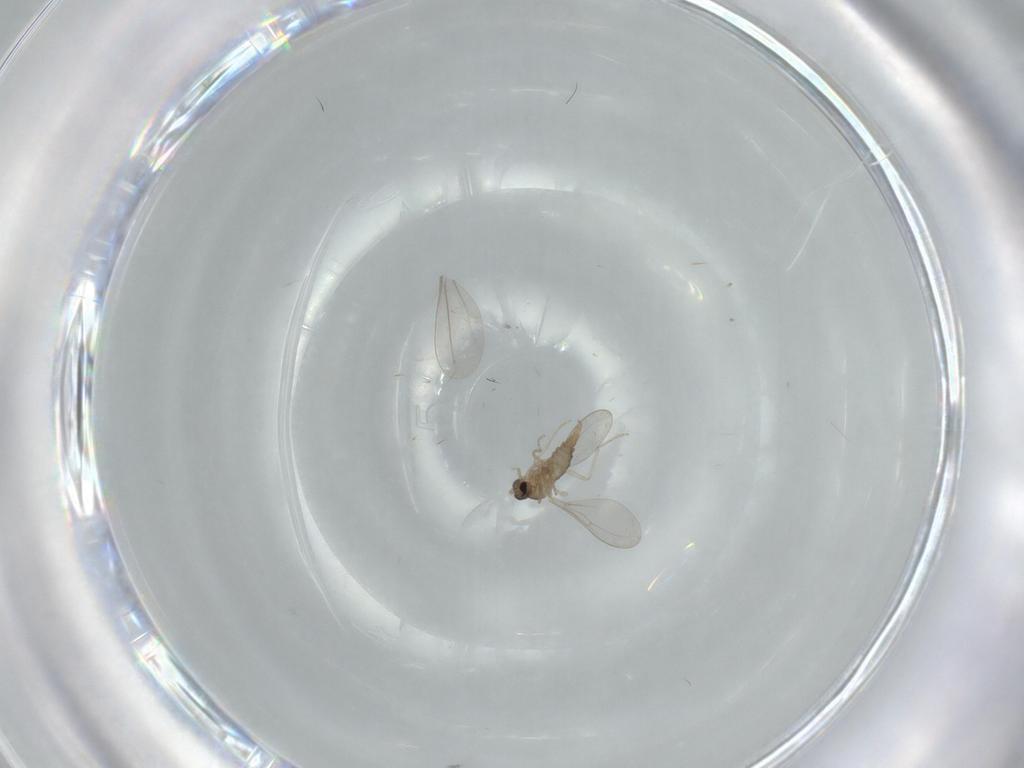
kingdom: Animalia
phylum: Arthropoda
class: Insecta
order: Diptera
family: Cecidomyiidae
